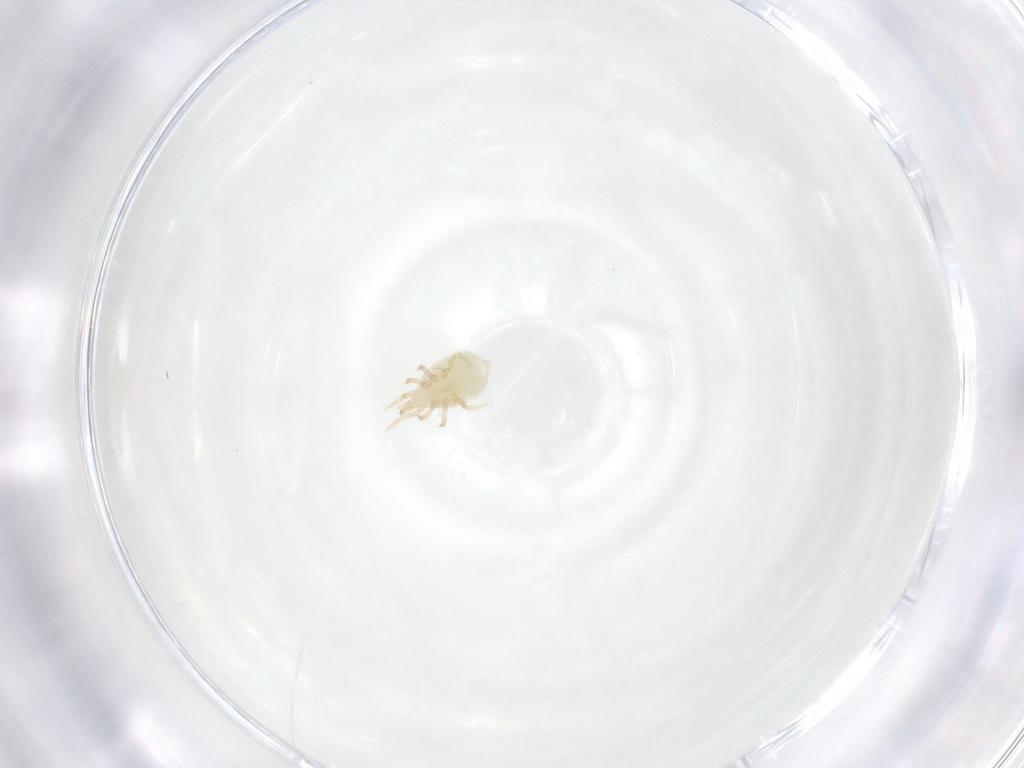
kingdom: Animalia
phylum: Arthropoda
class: Arachnida
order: Mesostigmata
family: Laelapidae
